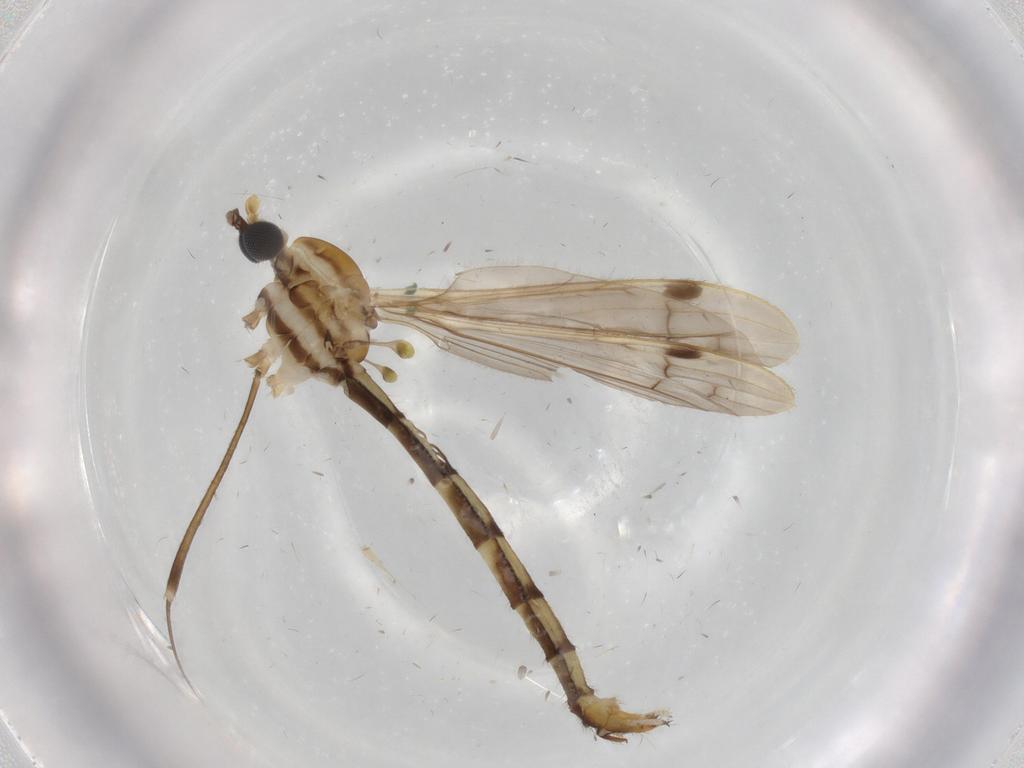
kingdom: Animalia
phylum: Arthropoda
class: Insecta
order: Diptera
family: Cecidomyiidae
